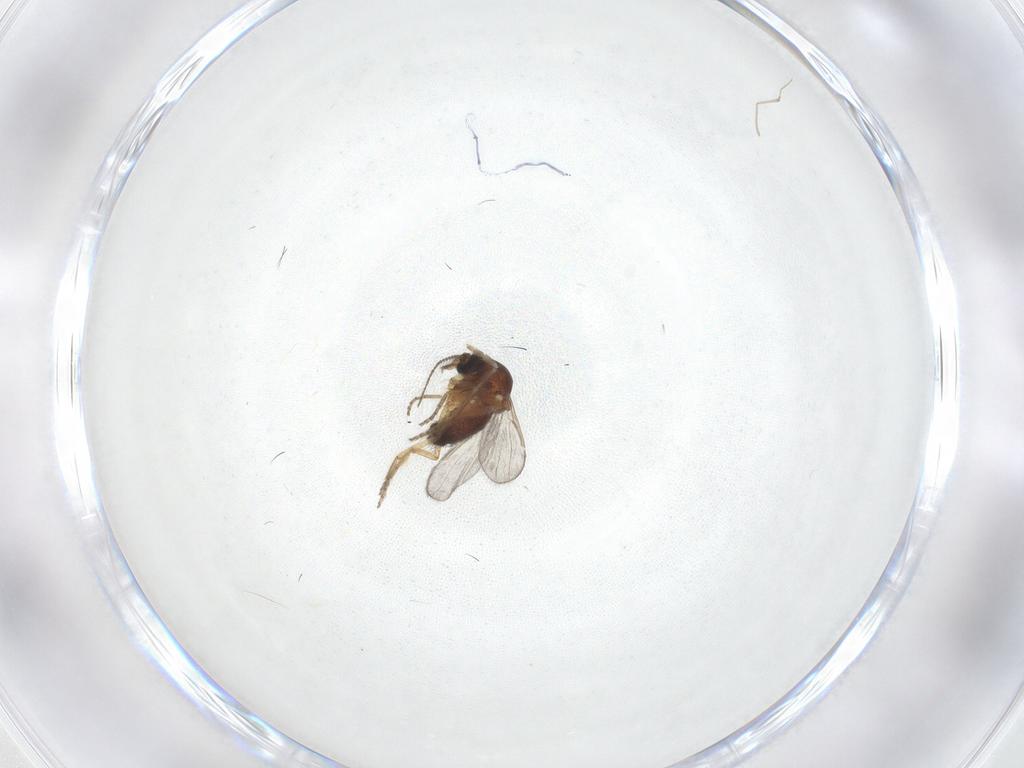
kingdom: Animalia
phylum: Arthropoda
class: Insecta
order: Diptera
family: Ceratopogonidae
